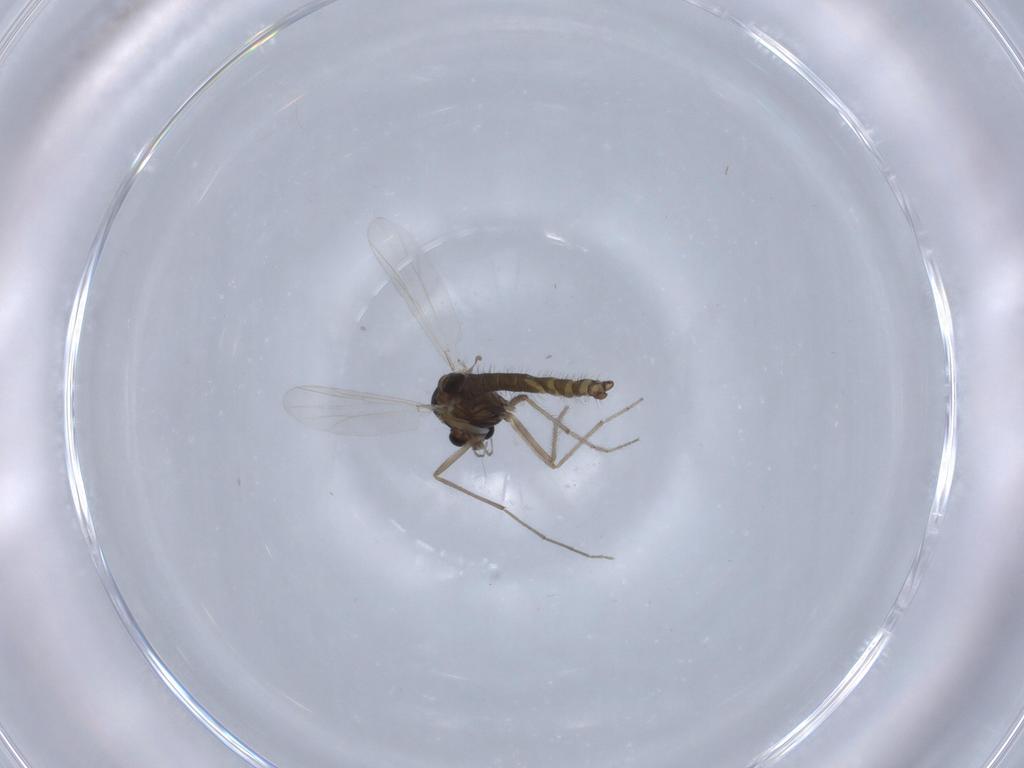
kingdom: Animalia
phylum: Arthropoda
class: Insecta
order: Diptera
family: Chironomidae
